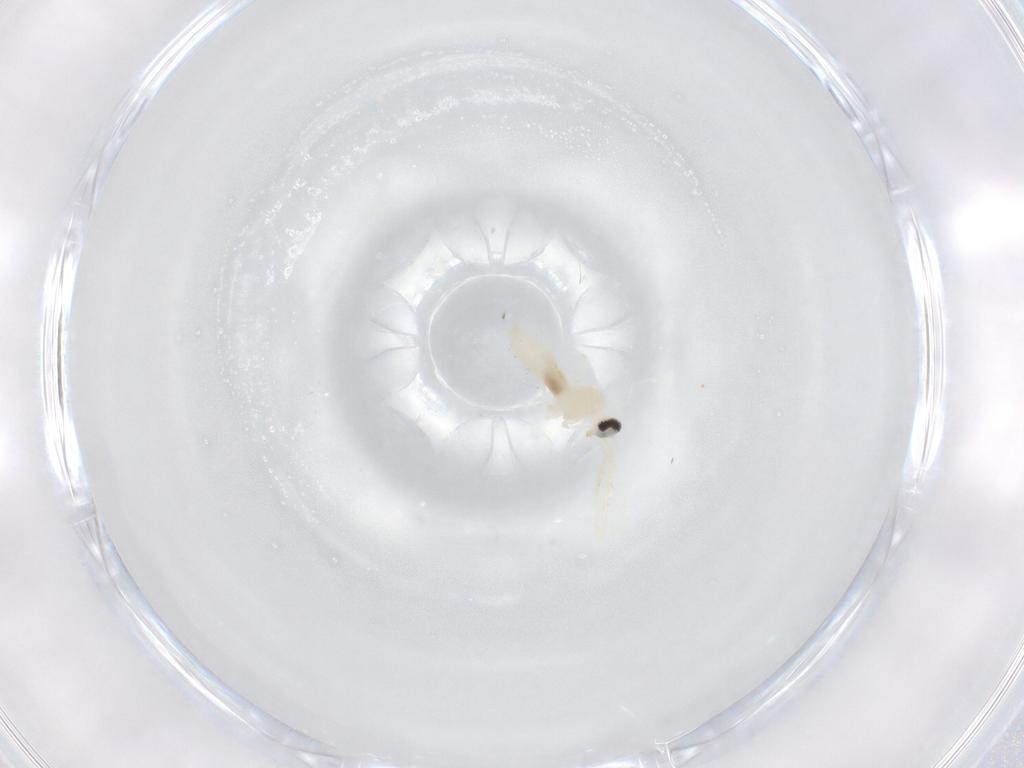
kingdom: Animalia
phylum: Arthropoda
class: Insecta
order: Diptera
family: Cecidomyiidae
